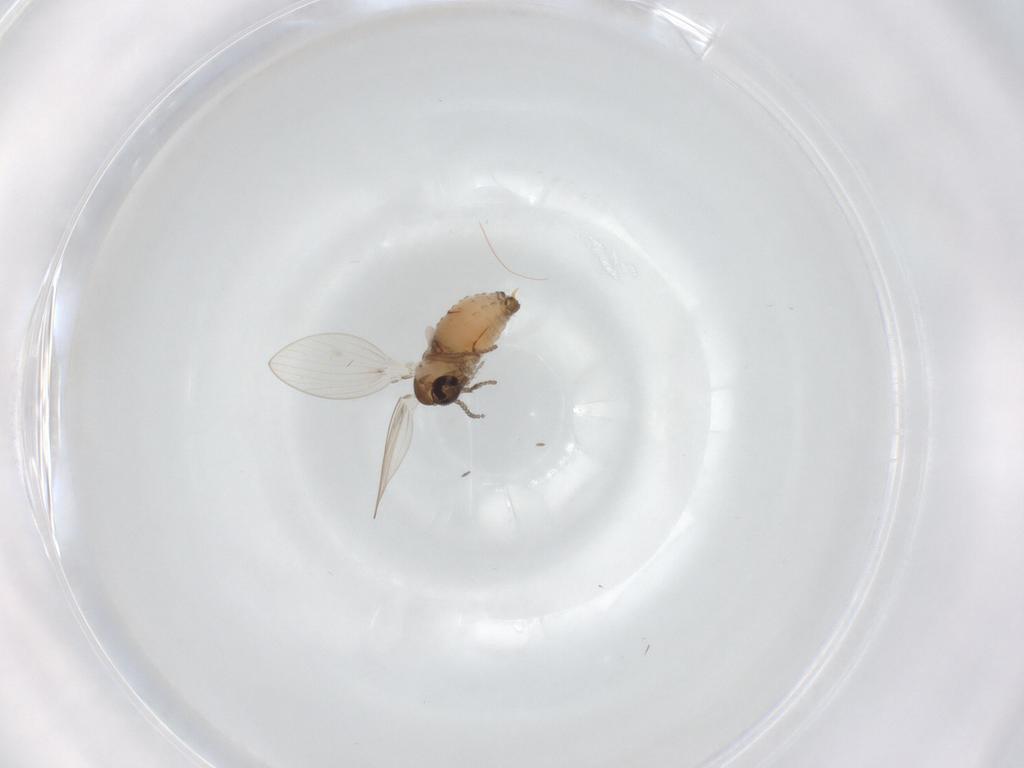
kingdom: Animalia
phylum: Arthropoda
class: Insecta
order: Diptera
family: Psychodidae
